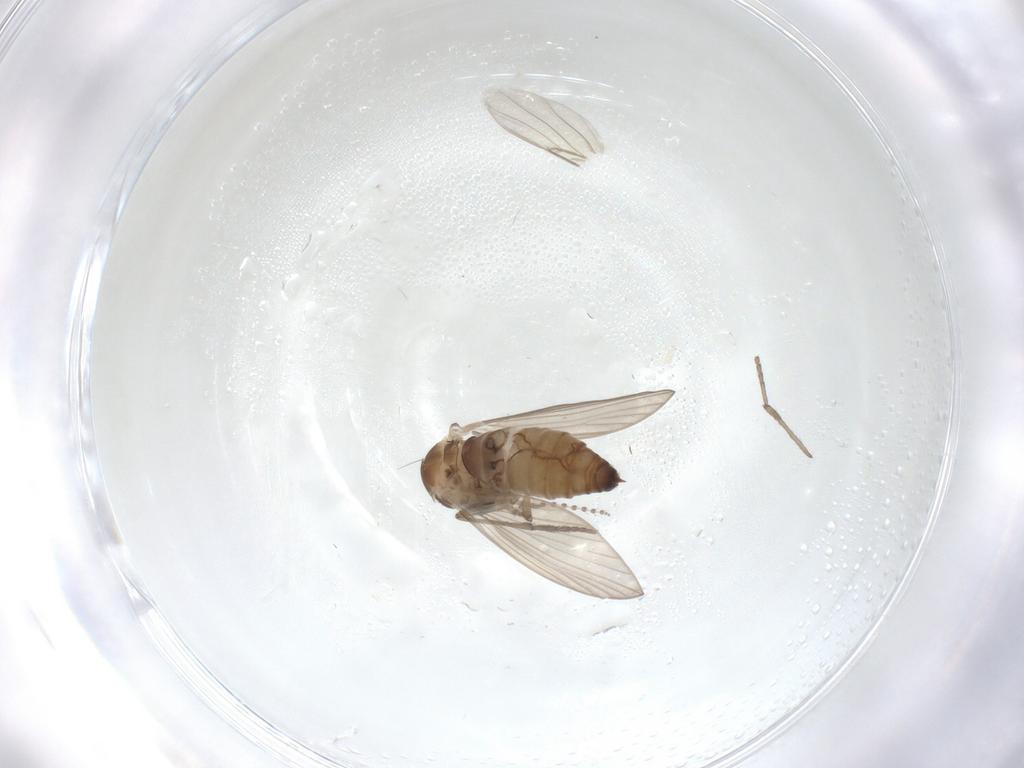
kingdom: Animalia
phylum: Arthropoda
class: Insecta
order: Diptera
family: Psychodidae
